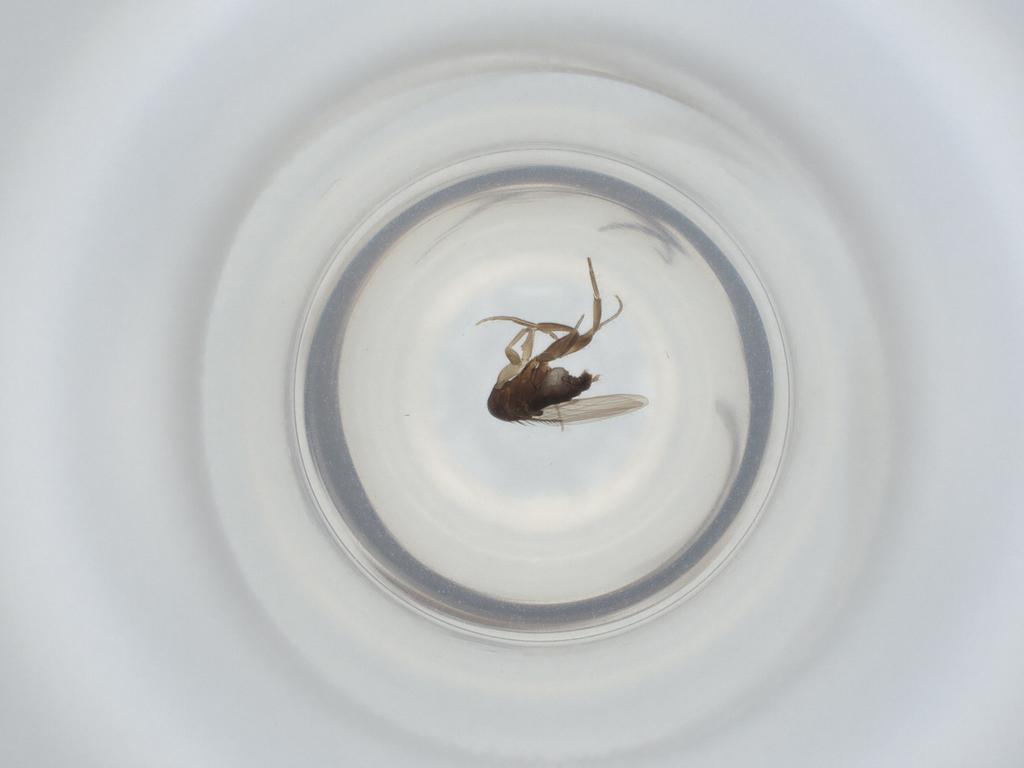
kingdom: Animalia
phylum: Arthropoda
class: Insecta
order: Diptera
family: Phoridae
